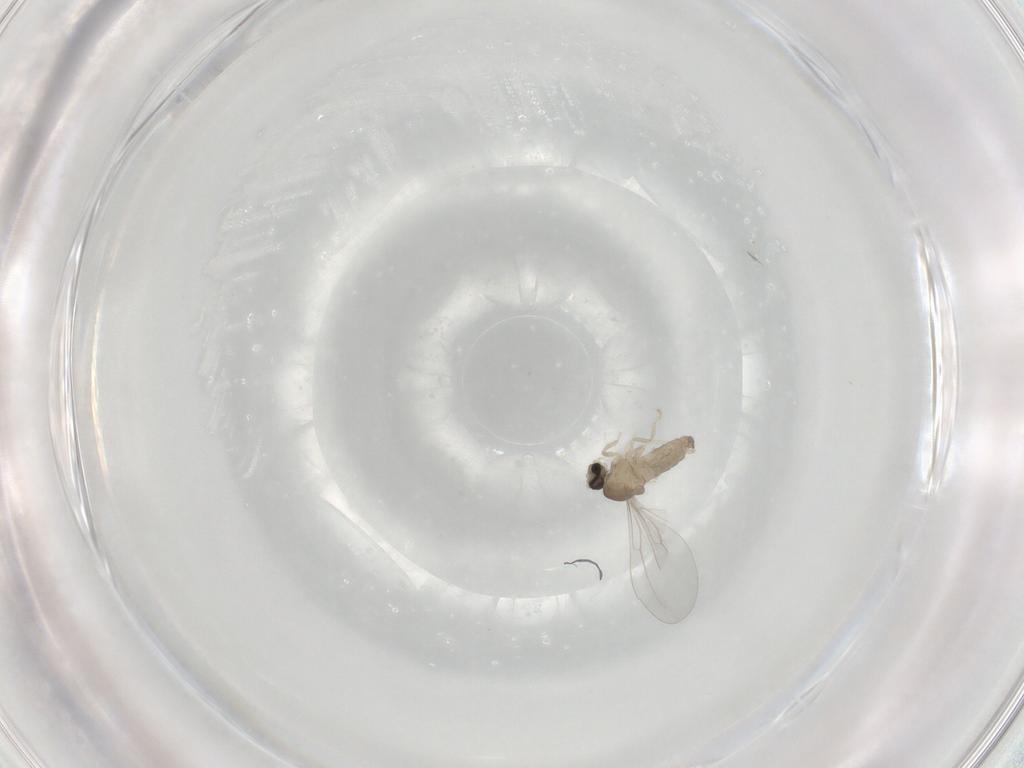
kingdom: Animalia
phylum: Arthropoda
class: Insecta
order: Diptera
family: Cecidomyiidae
